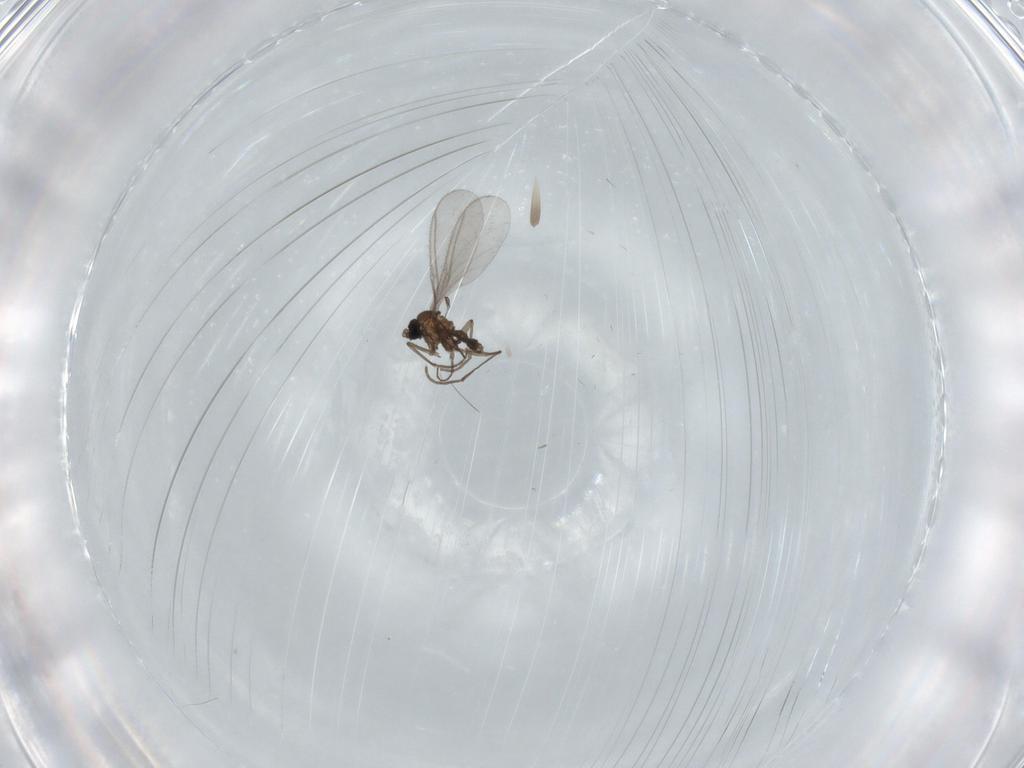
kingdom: Animalia
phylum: Arthropoda
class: Insecta
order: Diptera
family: Sciaridae
